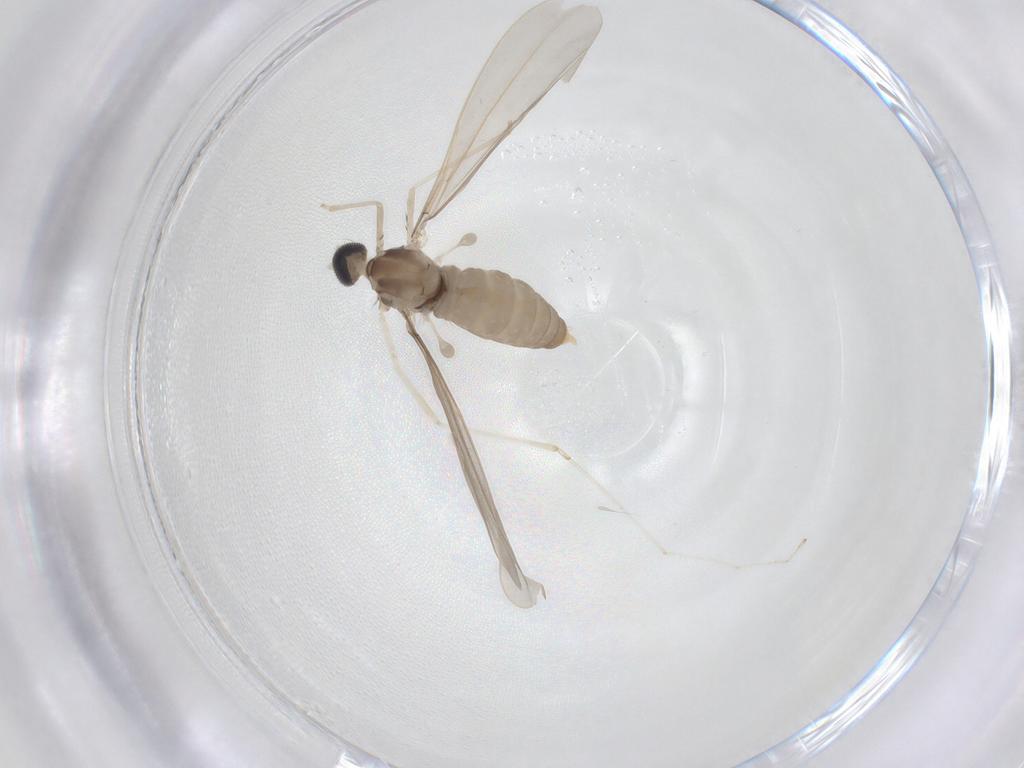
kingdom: Animalia
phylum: Arthropoda
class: Insecta
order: Diptera
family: Cecidomyiidae
